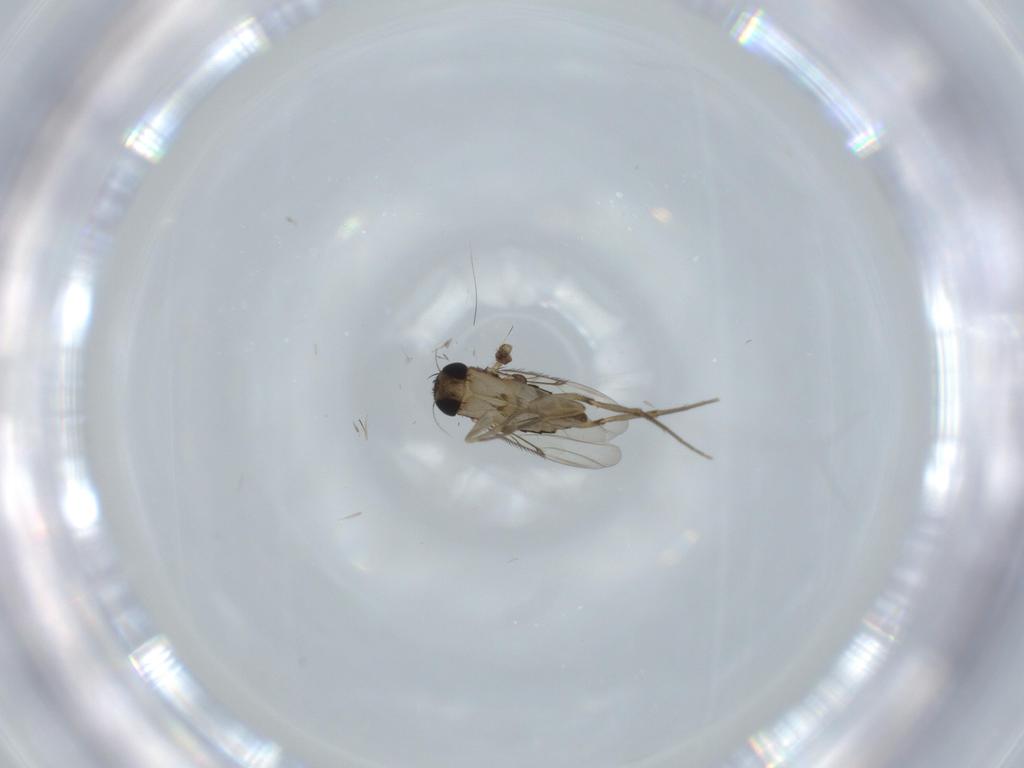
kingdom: Animalia
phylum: Arthropoda
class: Insecta
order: Diptera
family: Phoridae
